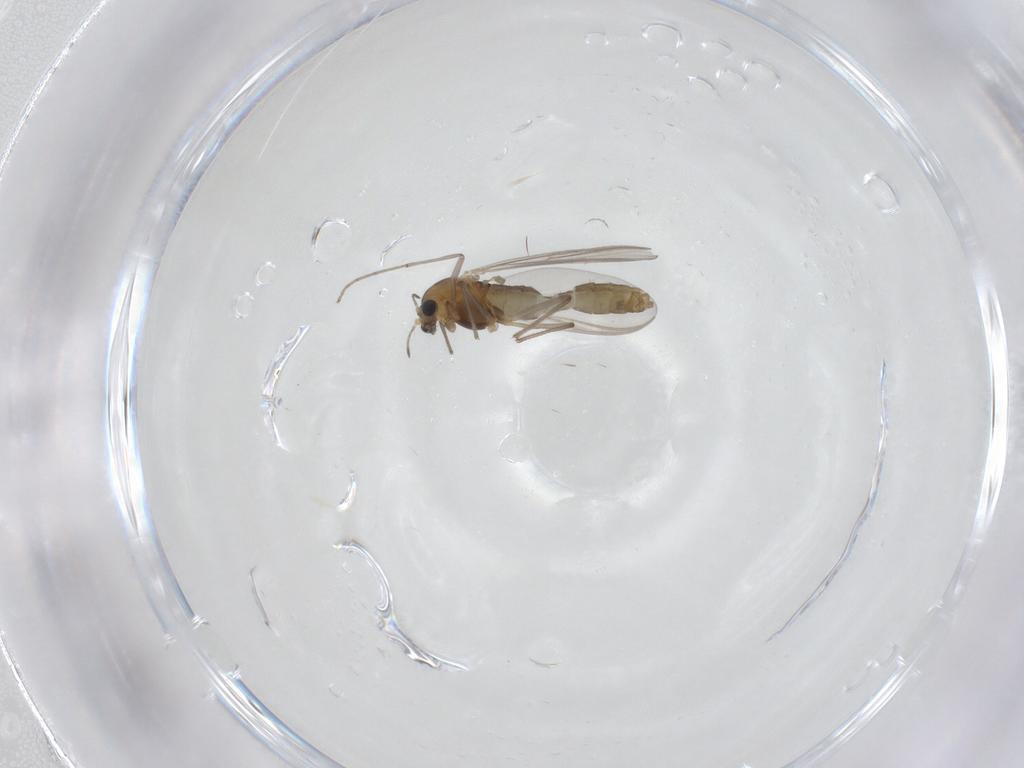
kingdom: Animalia
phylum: Arthropoda
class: Insecta
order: Diptera
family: Chironomidae
